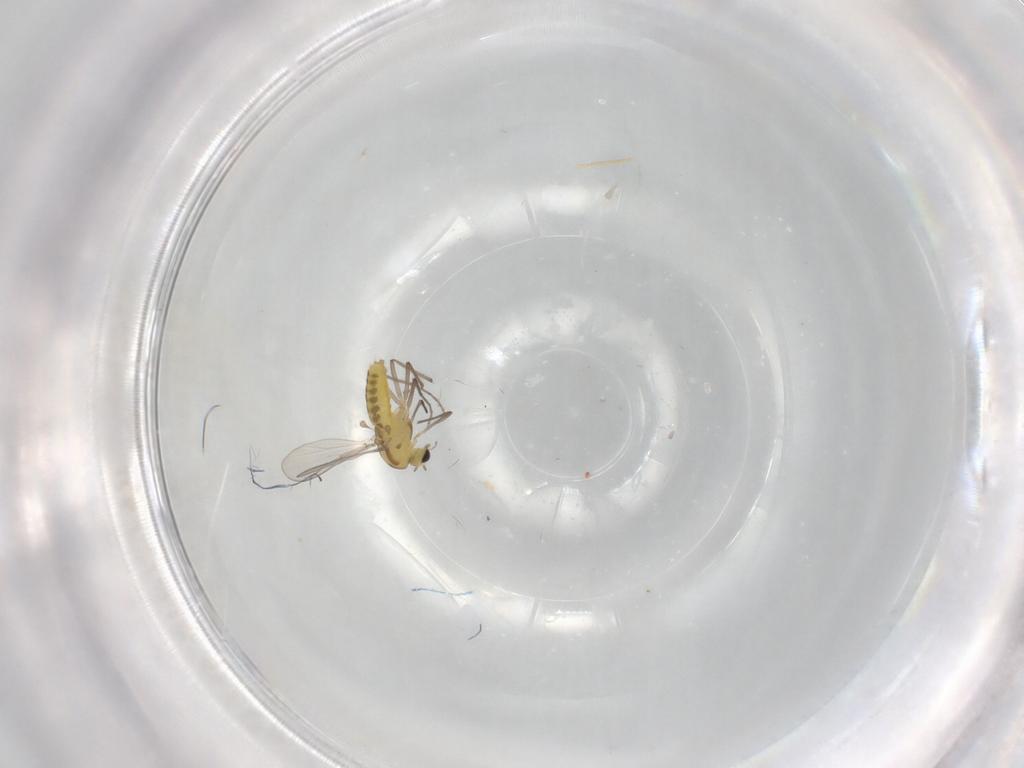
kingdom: Animalia
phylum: Arthropoda
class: Insecta
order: Diptera
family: Chironomidae
